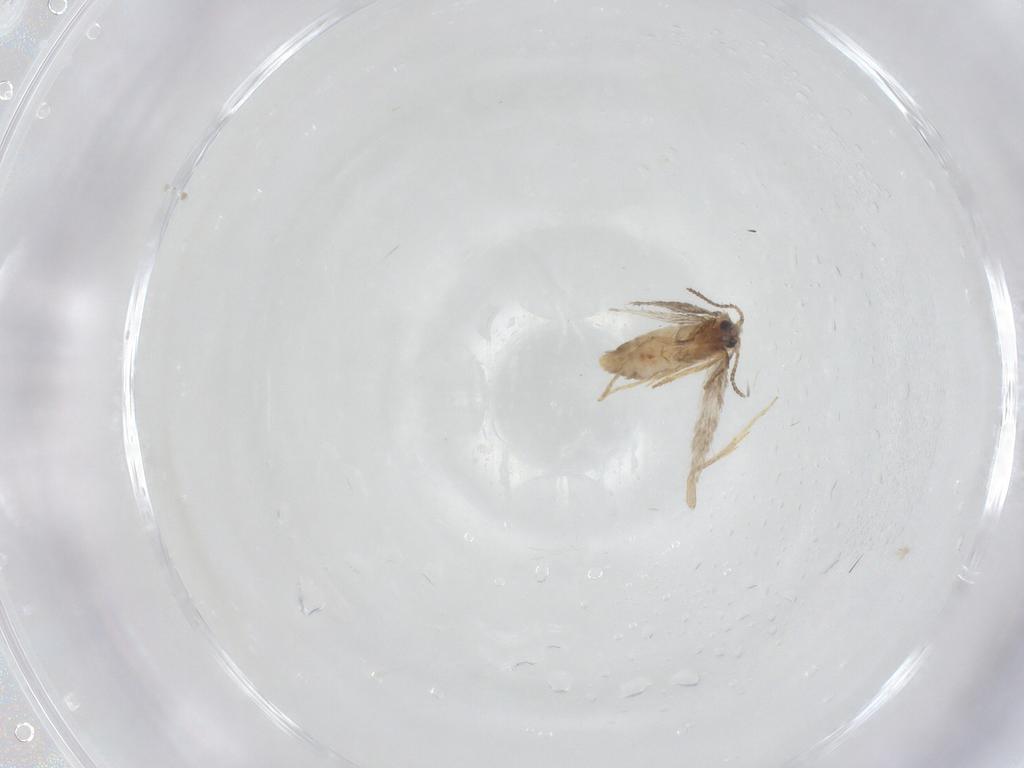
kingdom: Animalia
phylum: Arthropoda
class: Insecta
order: Lepidoptera
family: Nepticulidae
